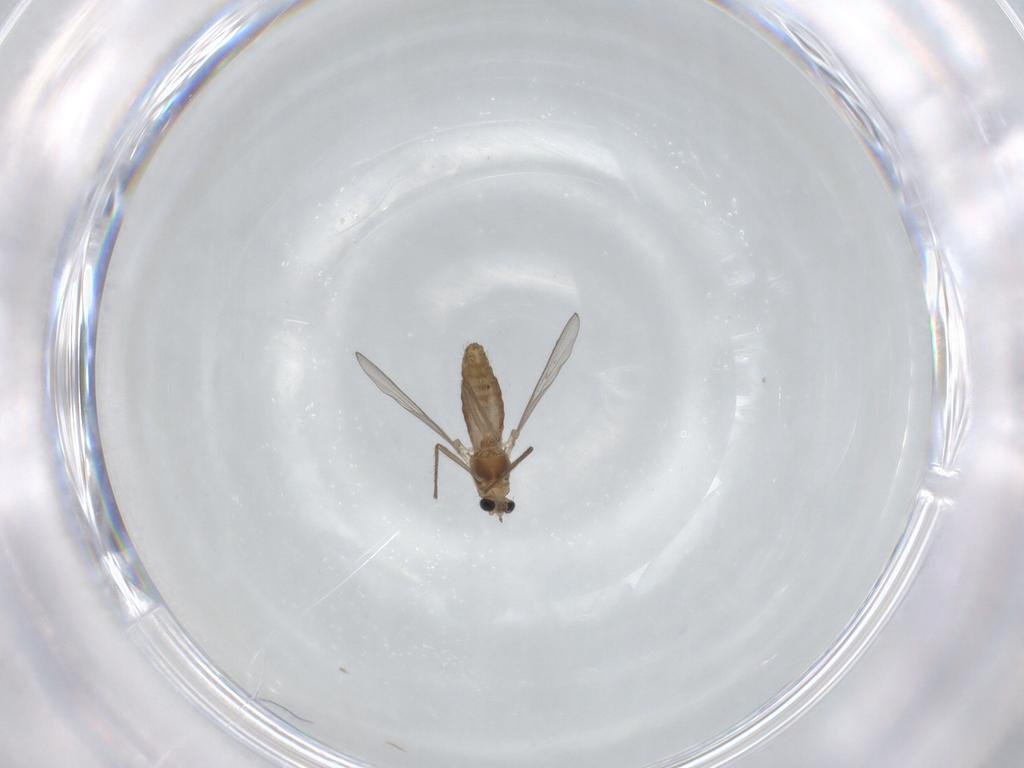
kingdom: Animalia
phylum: Arthropoda
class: Insecta
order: Diptera
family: Chironomidae
